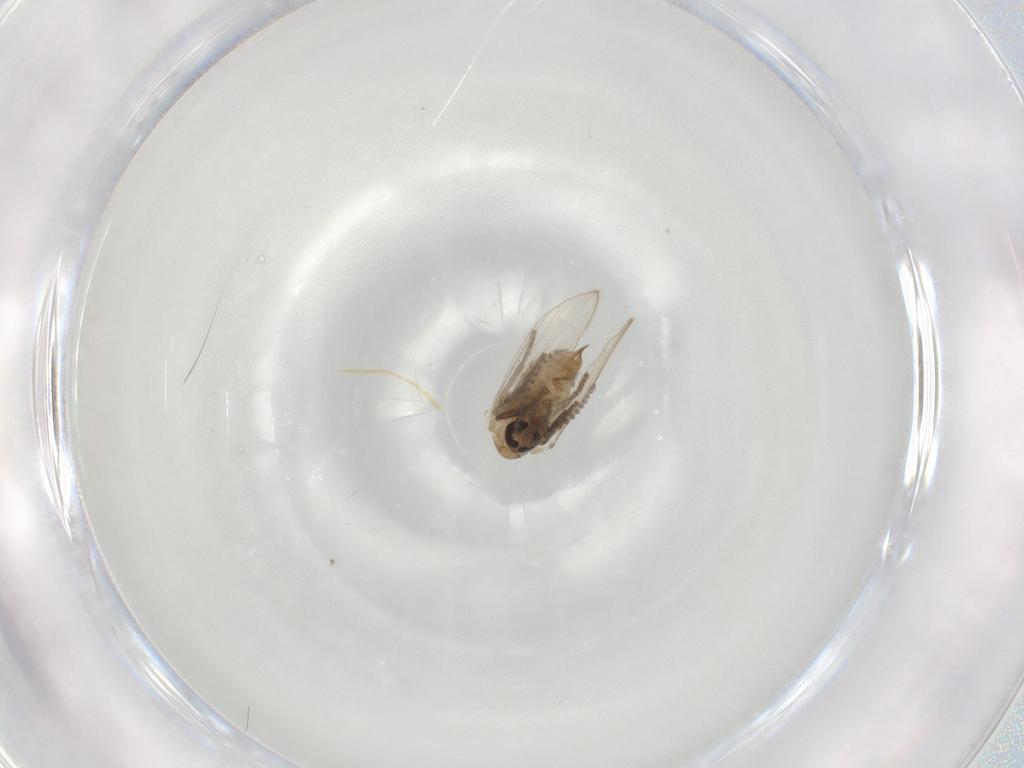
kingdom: Animalia
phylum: Arthropoda
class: Insecta
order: Diptera
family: Psychodidae
